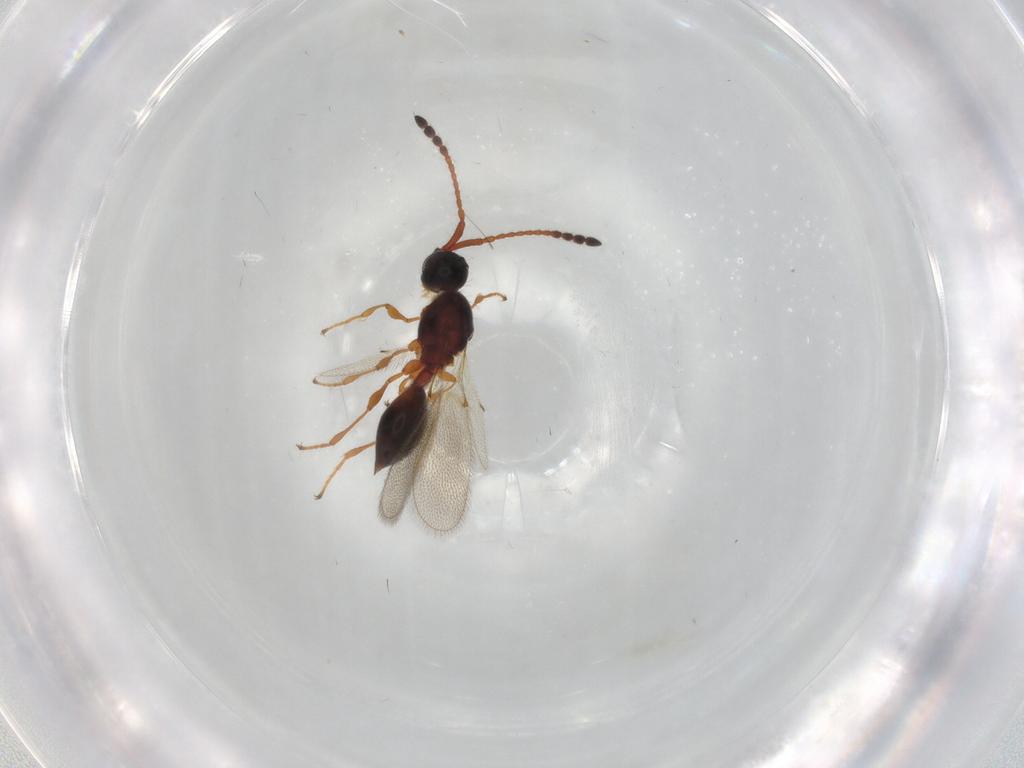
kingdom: Animalia
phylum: Arthropoda
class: Insecta
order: Hymenoptera
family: Diapriidae
